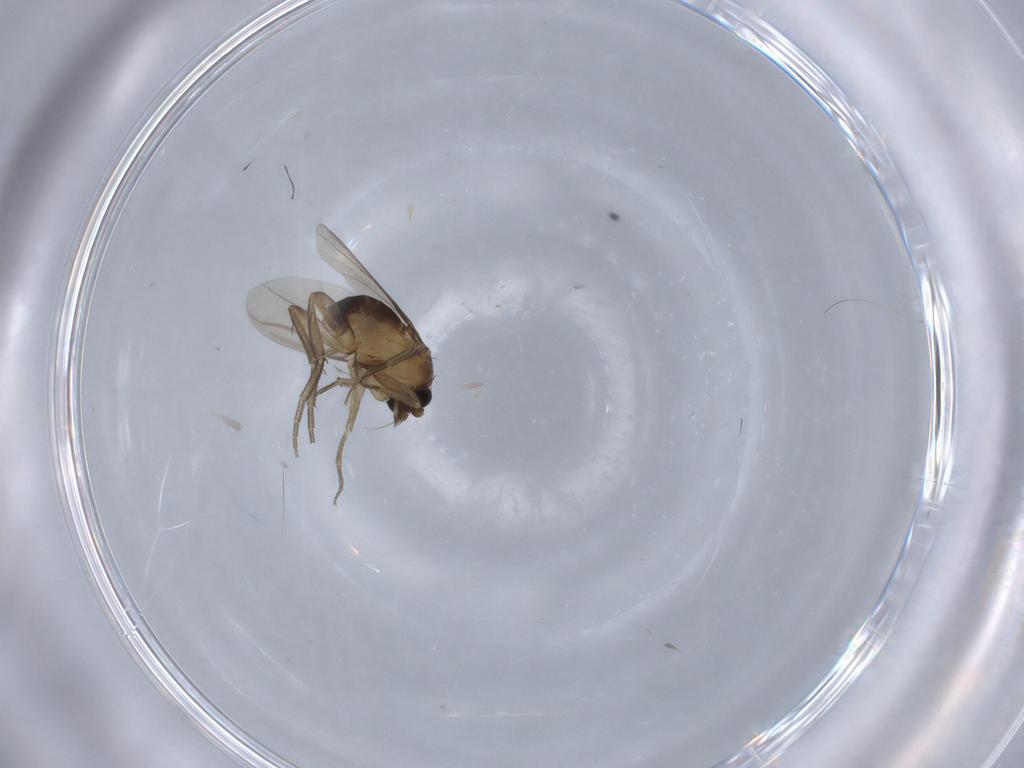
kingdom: Animalia
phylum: Arthropoda
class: Insecta
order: Diptera
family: Phoridae
